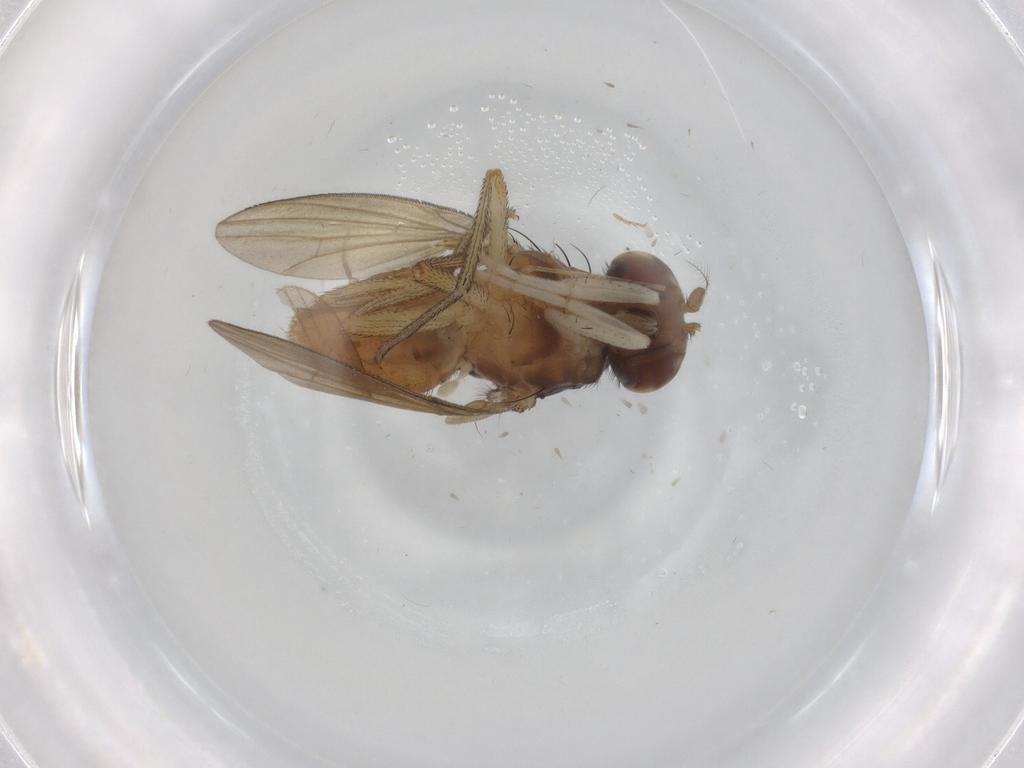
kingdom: Animalia
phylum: Arthropoda
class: Insecta
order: Diptera
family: Lauxaniidae
